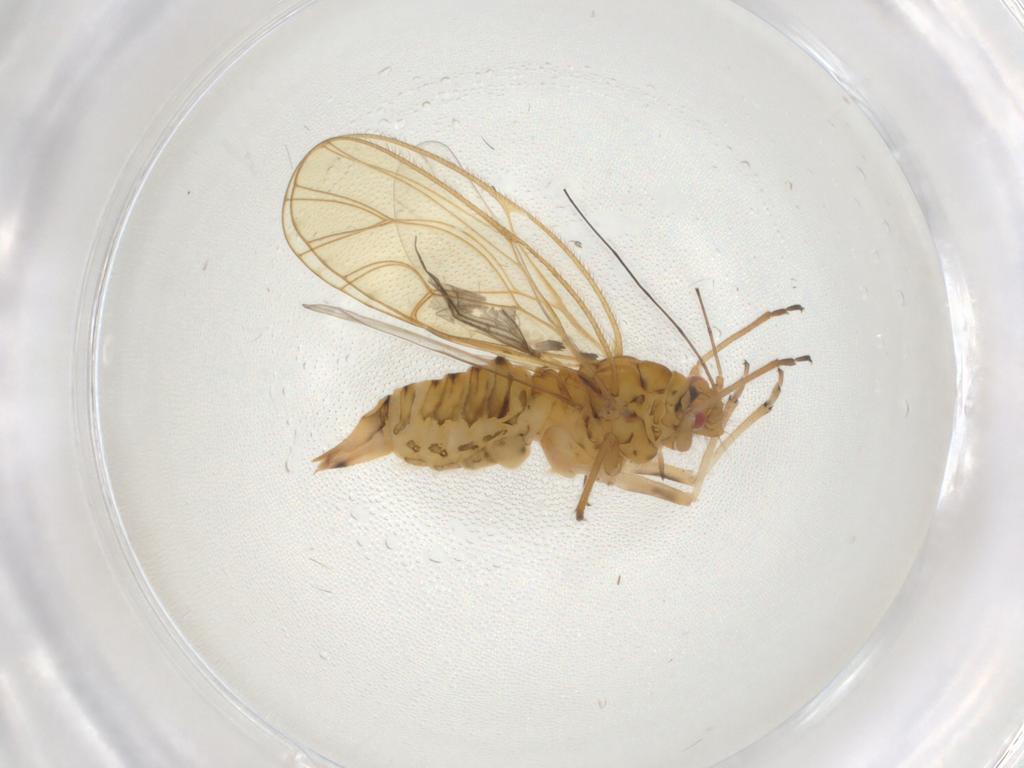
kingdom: Animalia
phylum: Arthropoda
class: Insecta
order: Hemiptera
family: Psyllidae
